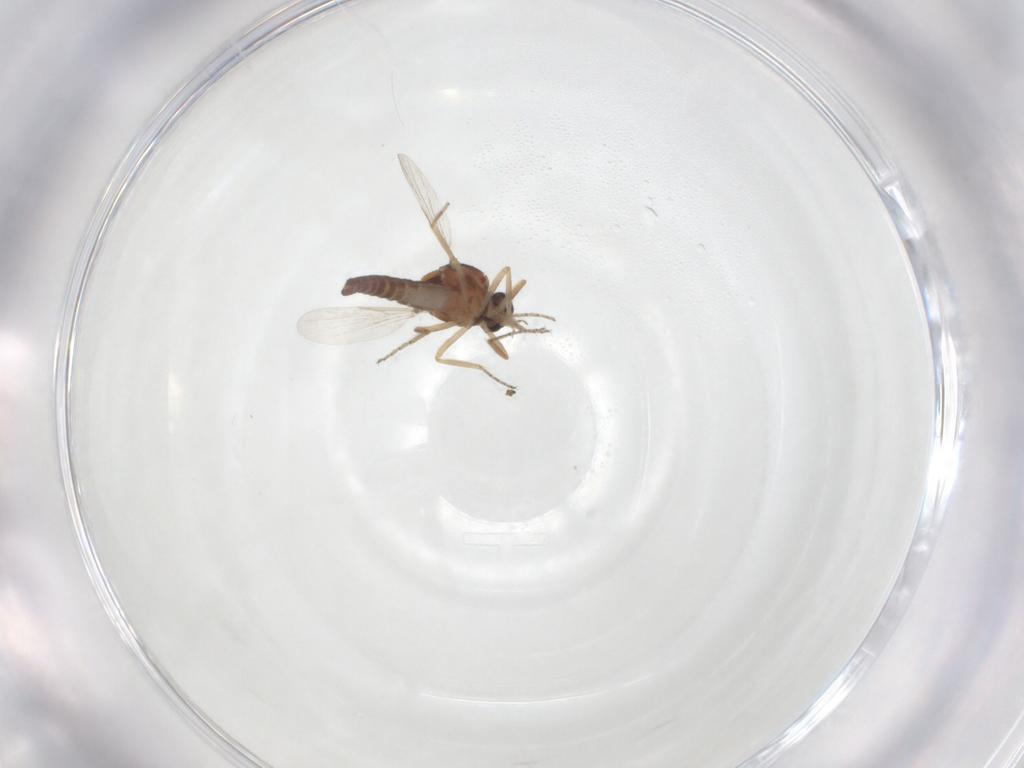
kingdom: Animalia
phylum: Arthropoda
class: Insecta
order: Diptera
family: Ceratopogonidae
